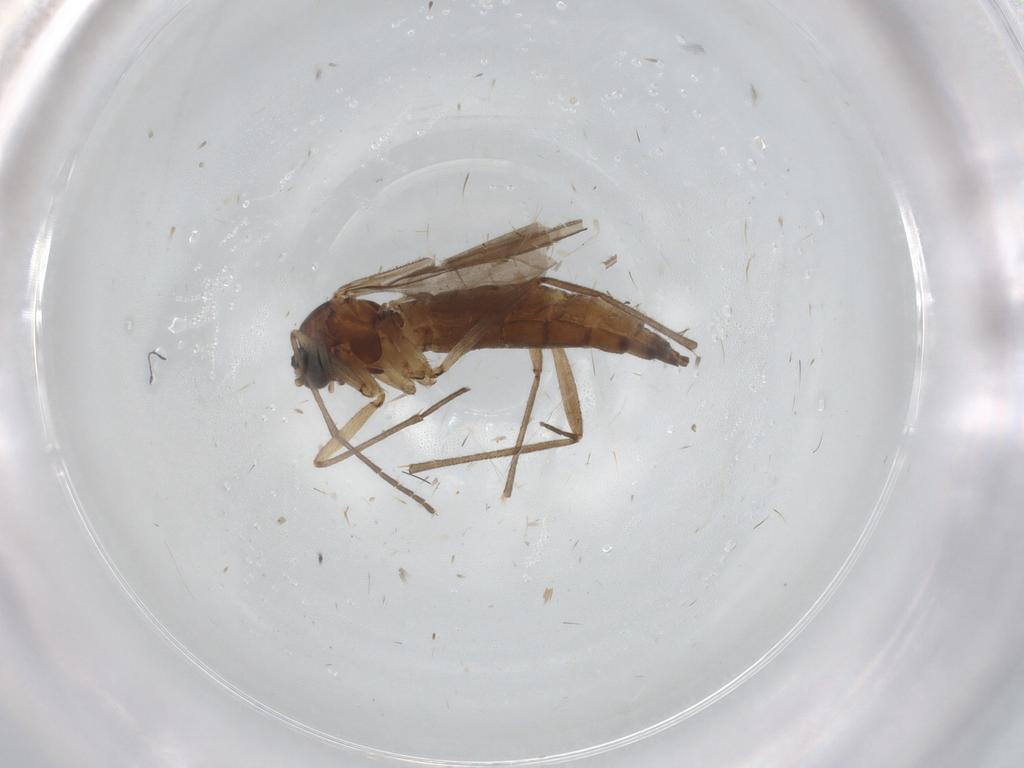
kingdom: Animalia
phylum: Arthropoda
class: Insecta
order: Diptera
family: Sciaridae
